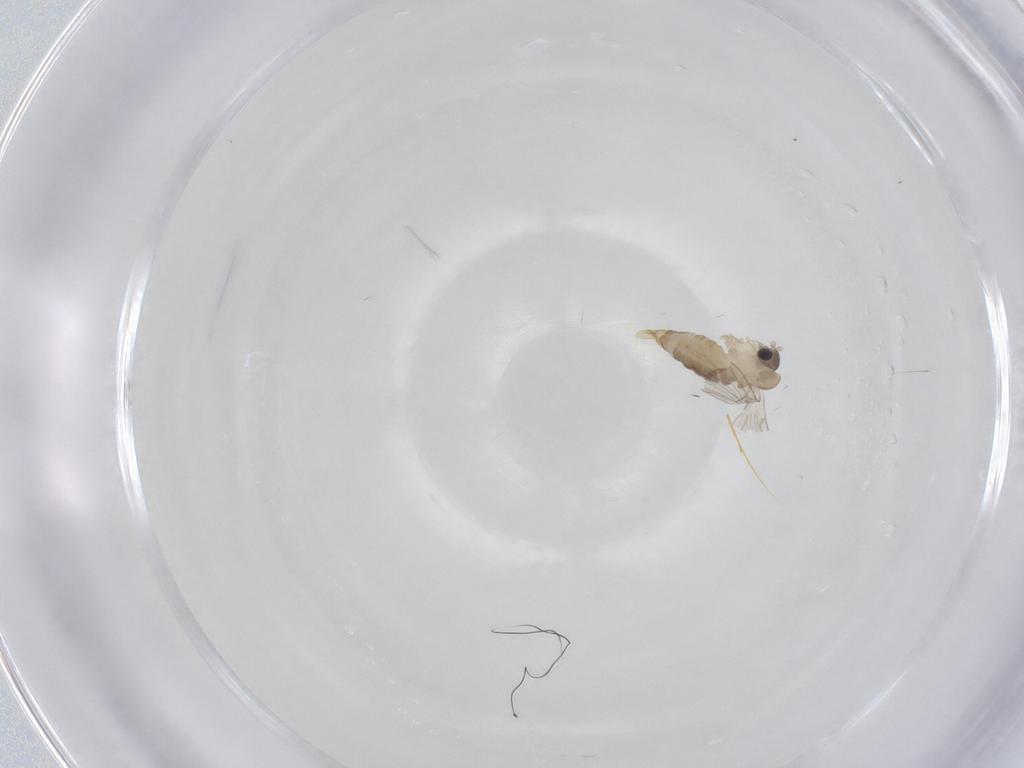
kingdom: Animalia
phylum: Arthropoda
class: Insecta
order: Diptera
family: Psychodidae
